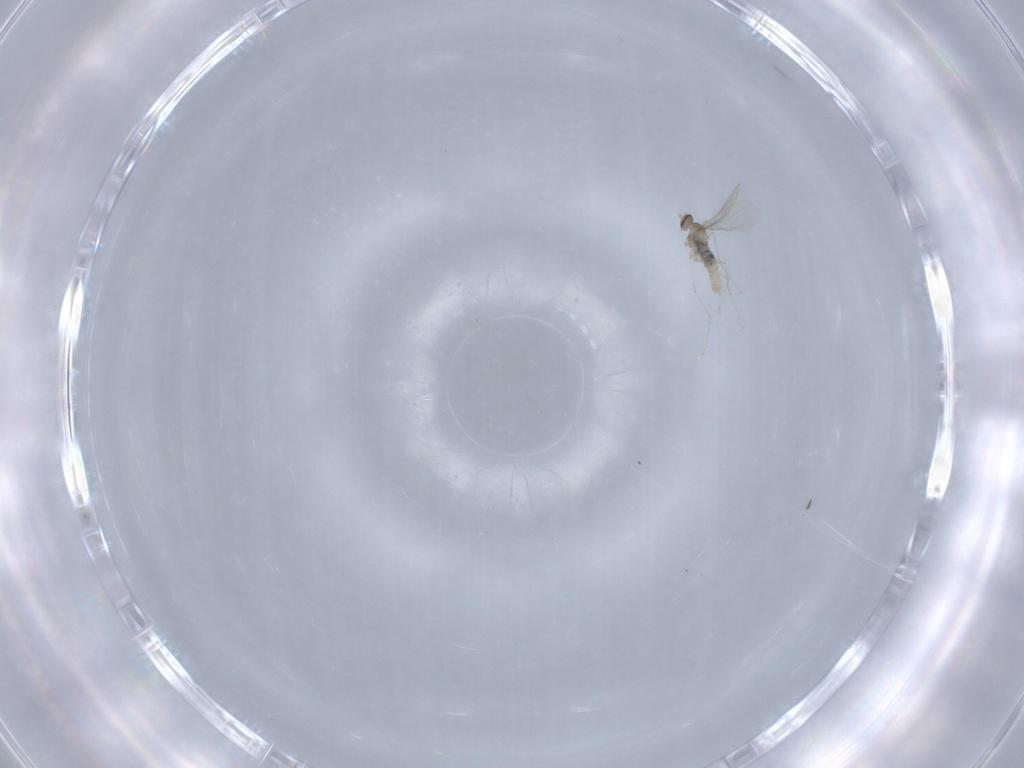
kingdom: Animalia
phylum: Arthropoda
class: Insecta
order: Diptera
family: Cecidomyiidae
